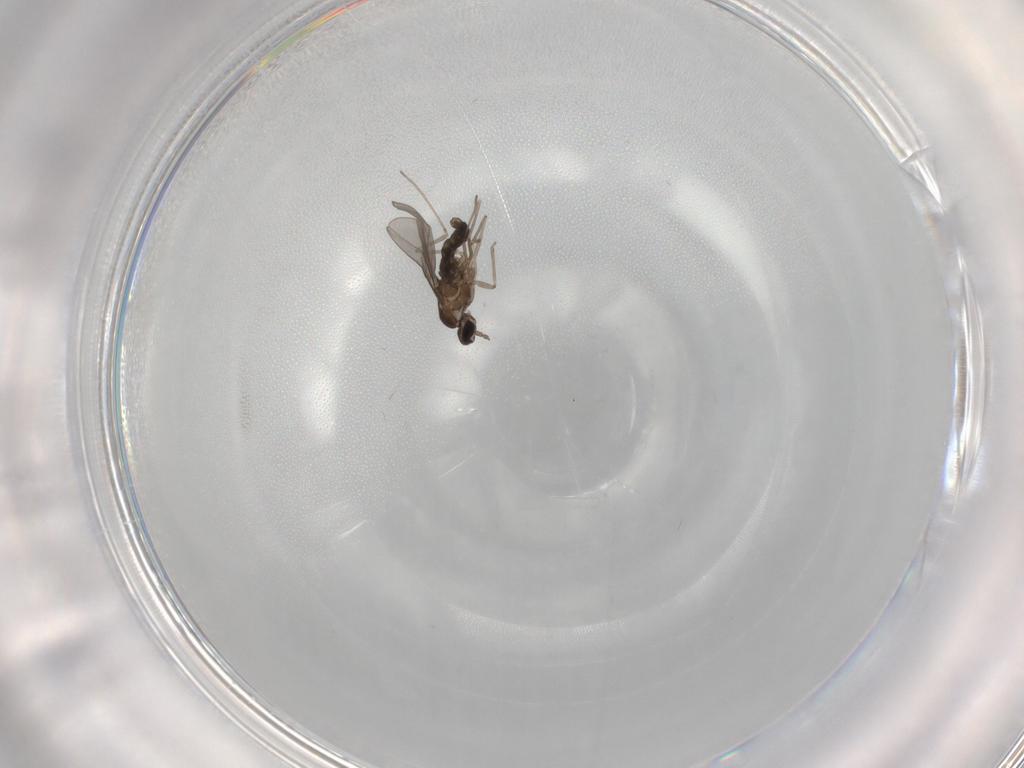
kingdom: Animalia
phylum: Arthropoda
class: Insecta
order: Diptera
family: Cecidomyiidae
